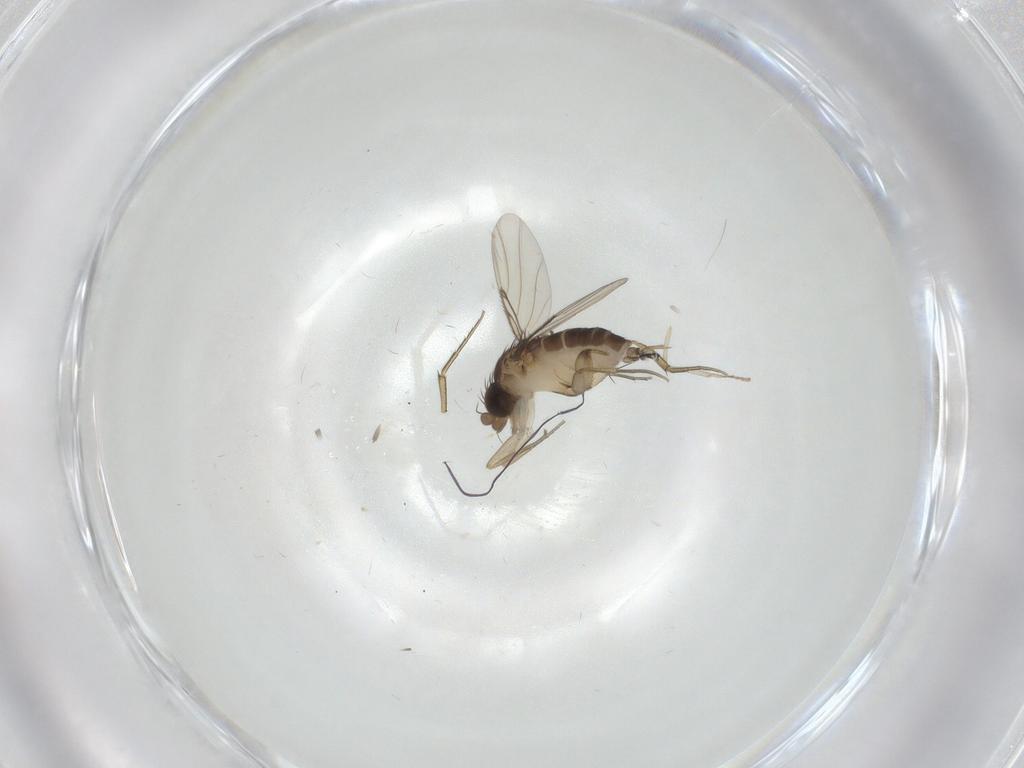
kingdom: Animalia
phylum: Arthropoda
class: Insecta
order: Diptera
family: Phoridae
